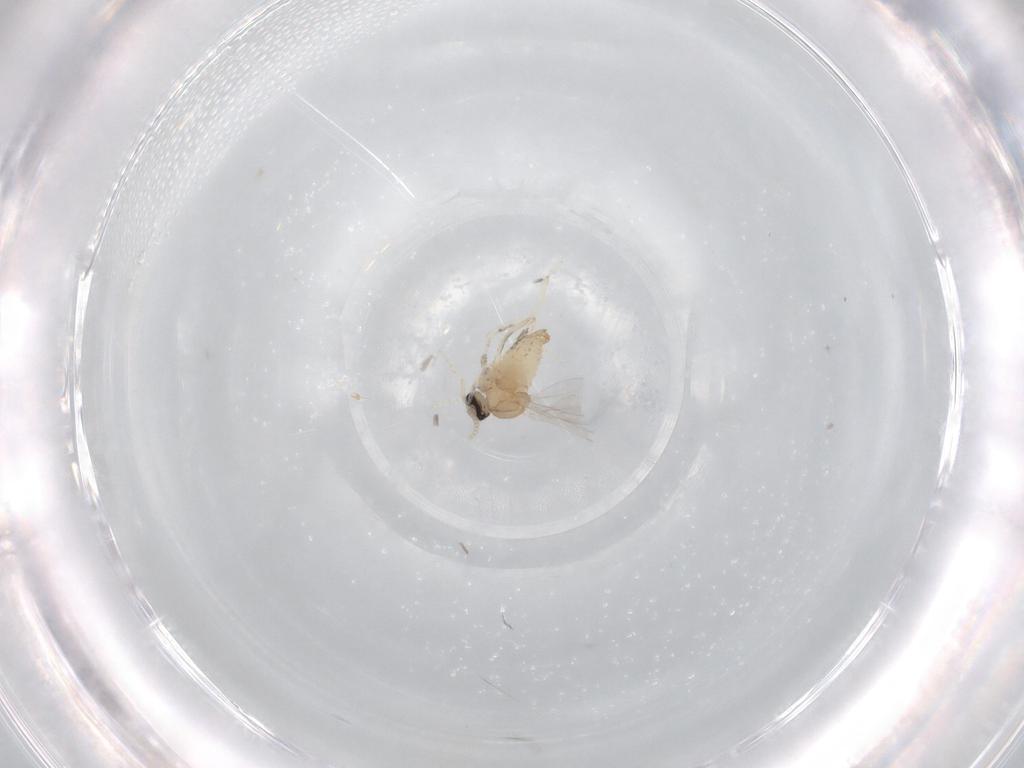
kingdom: Animalia
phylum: Arthropoda
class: Insecta
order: Diptera
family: Cecidomyiidae
